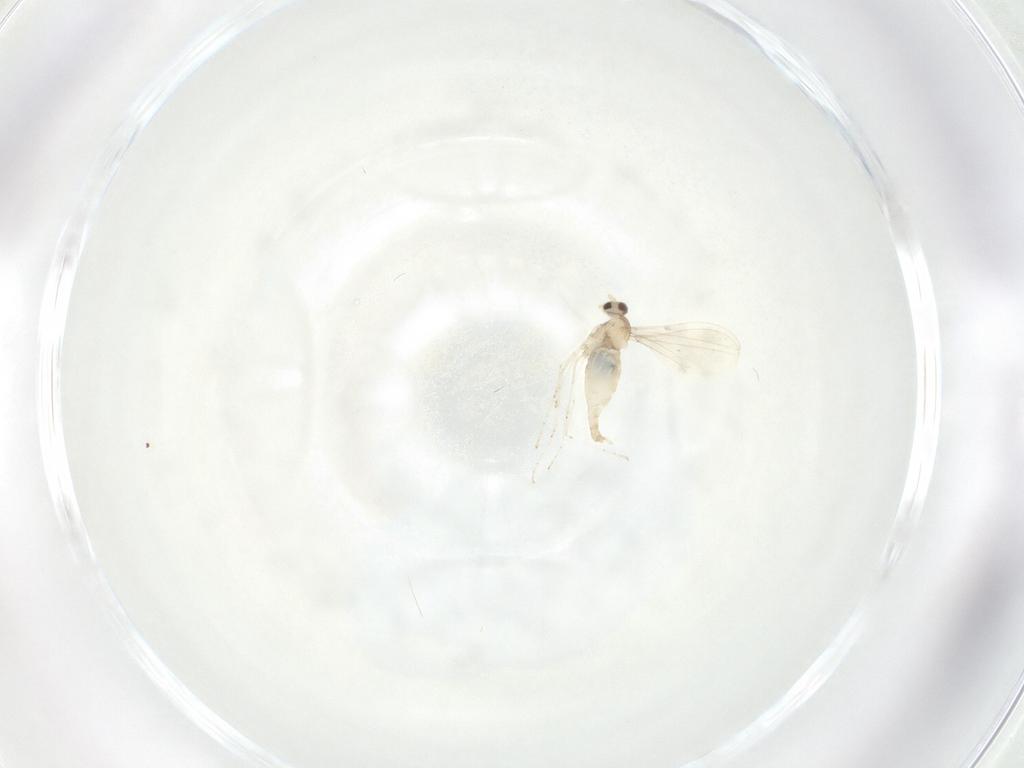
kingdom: Animalia
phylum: Arthropoda
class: Insecta
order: Diptera
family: Cecidomyiidae
